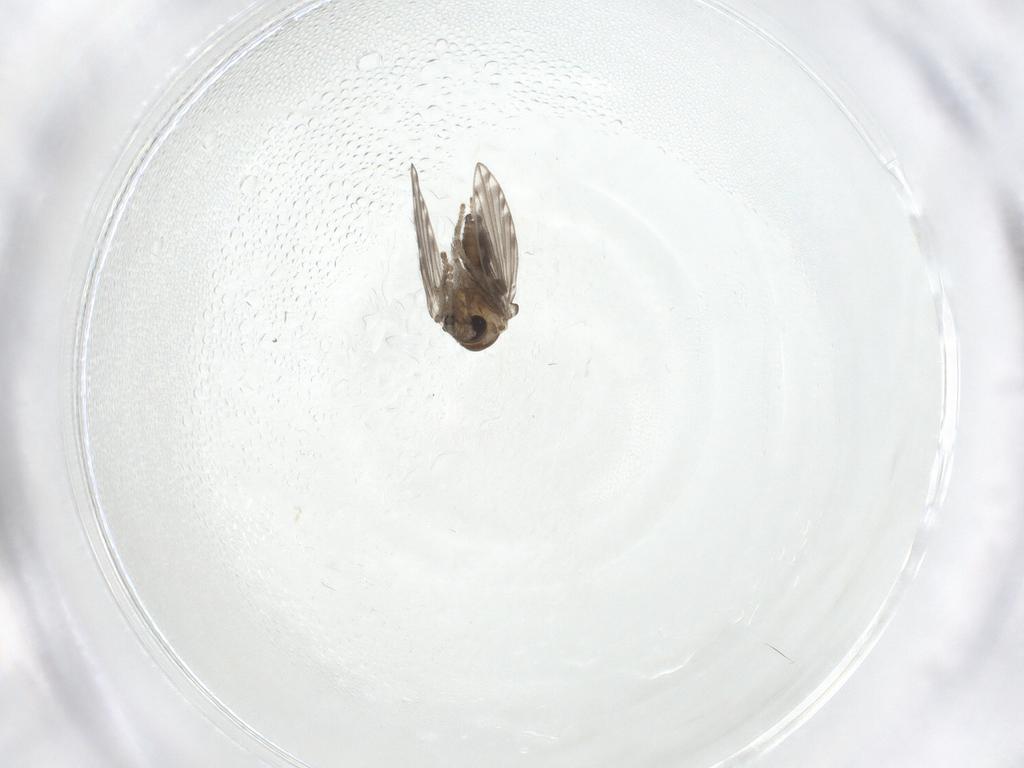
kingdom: Animalia
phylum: Arthropoda
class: Insecta
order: Diptera
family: Psychodidae
